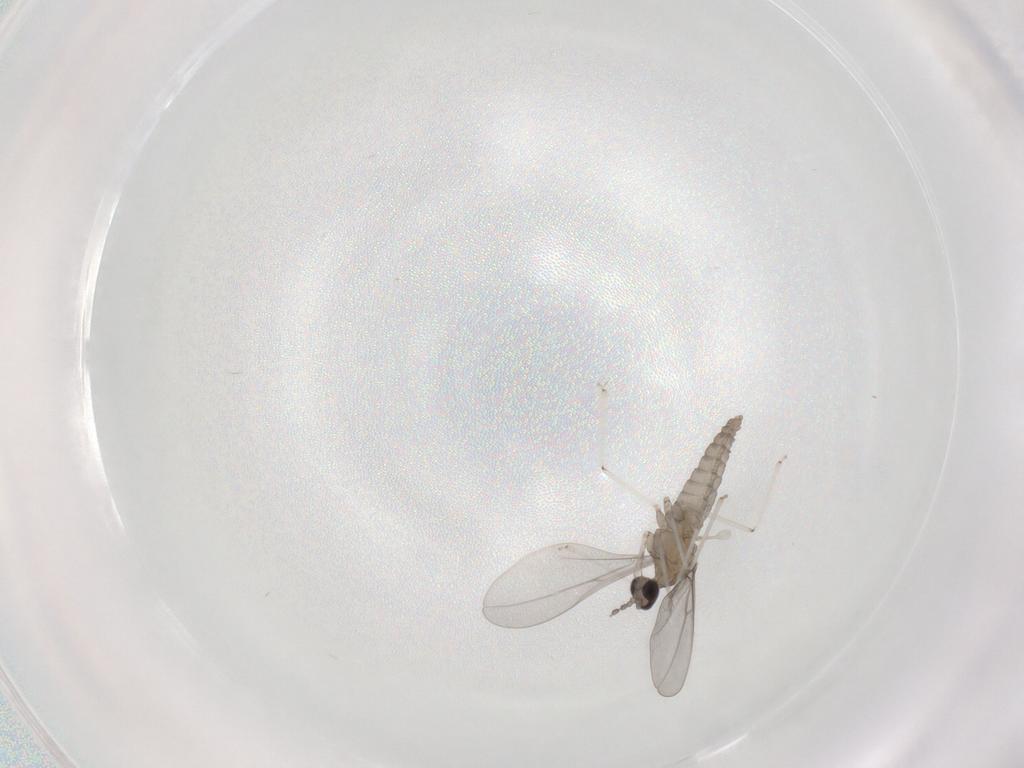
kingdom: Animalia
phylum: Arthropoda
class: Insecta
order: Diptera
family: Cecidomyiidae
